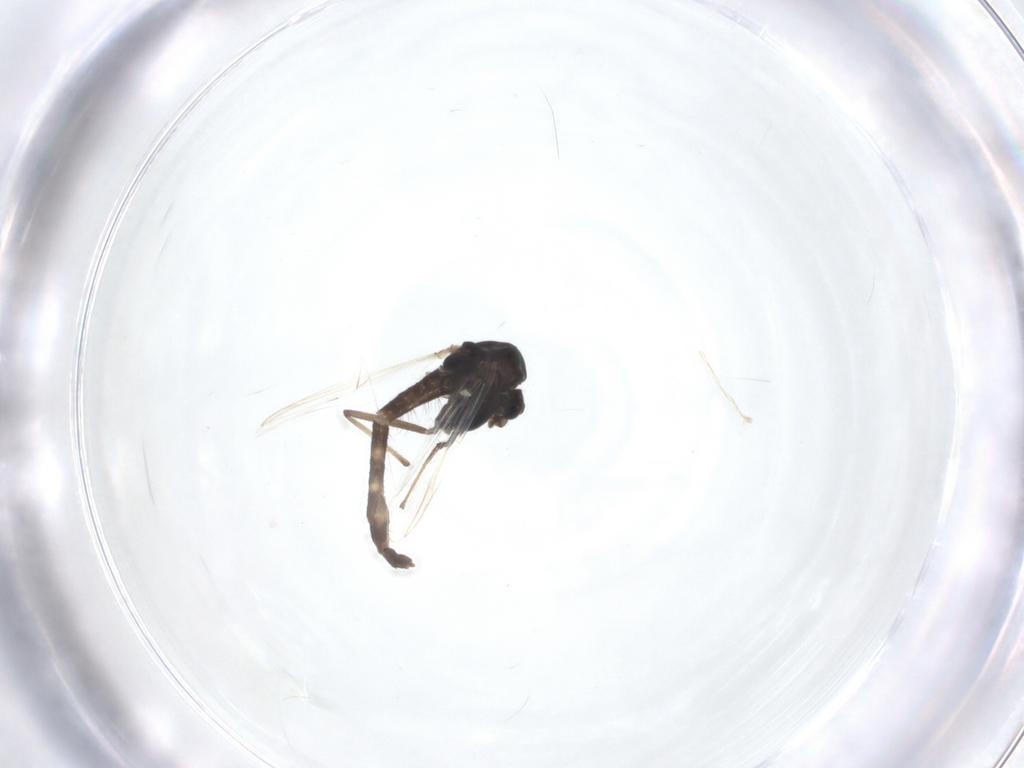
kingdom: Animalia
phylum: Arthropoda
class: Insecta
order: Diptera
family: Chironomidae
